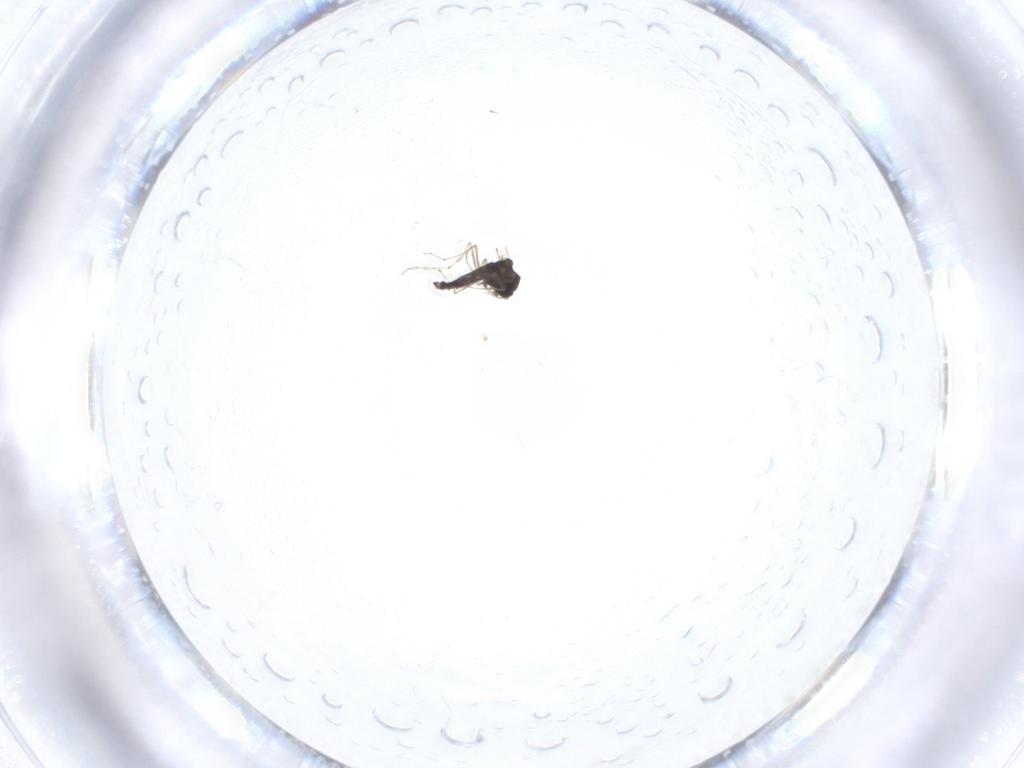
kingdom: Animalia
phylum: Arthropoda
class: Insecta
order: Diptera
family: Chironomidae
